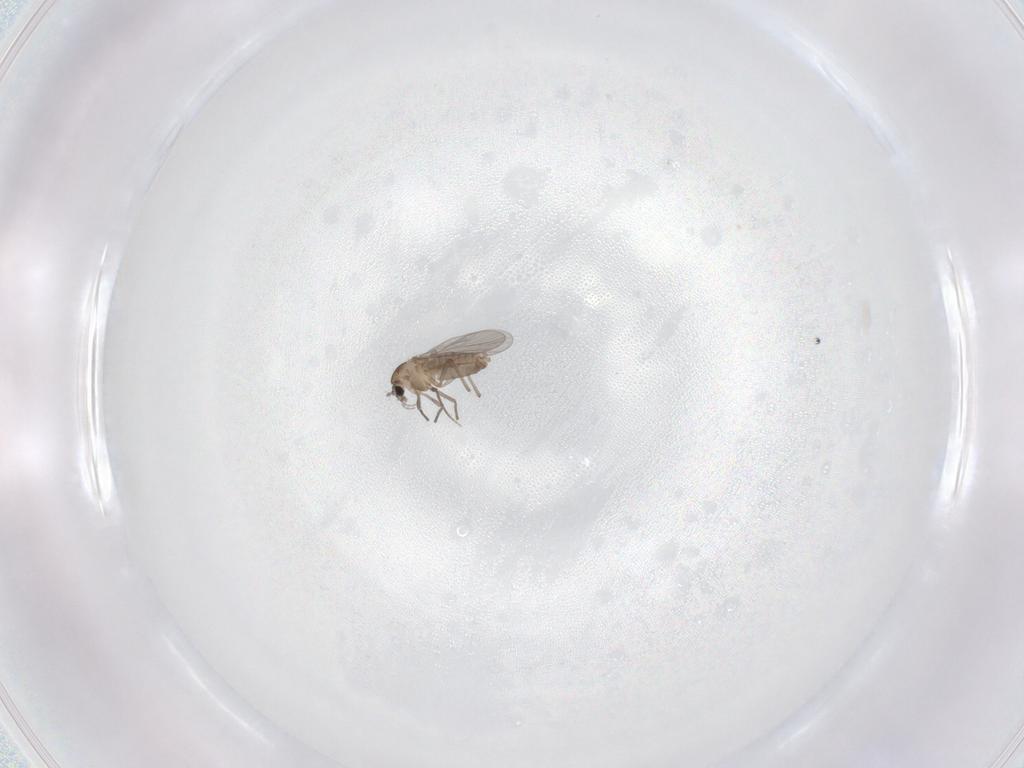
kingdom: Animalia
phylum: Arthropoda
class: Insecta
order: Diptera
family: Chironomidae
